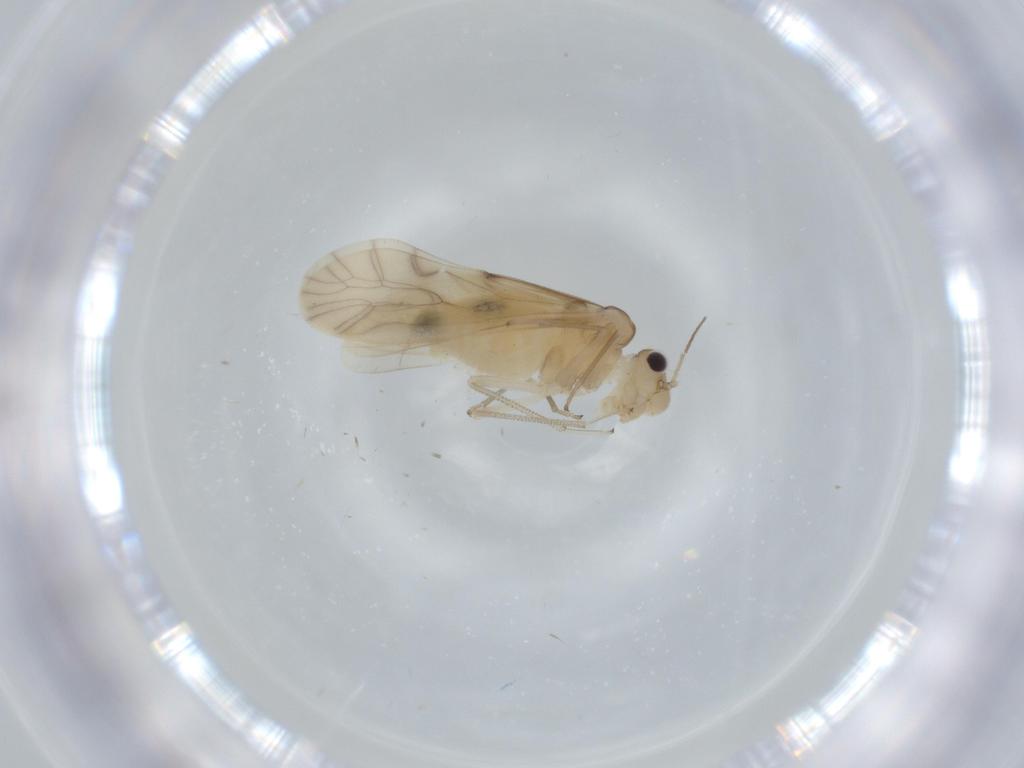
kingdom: Animalia
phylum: Arthropoda
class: Insecta
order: Psocodea
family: Caeciliusidae
